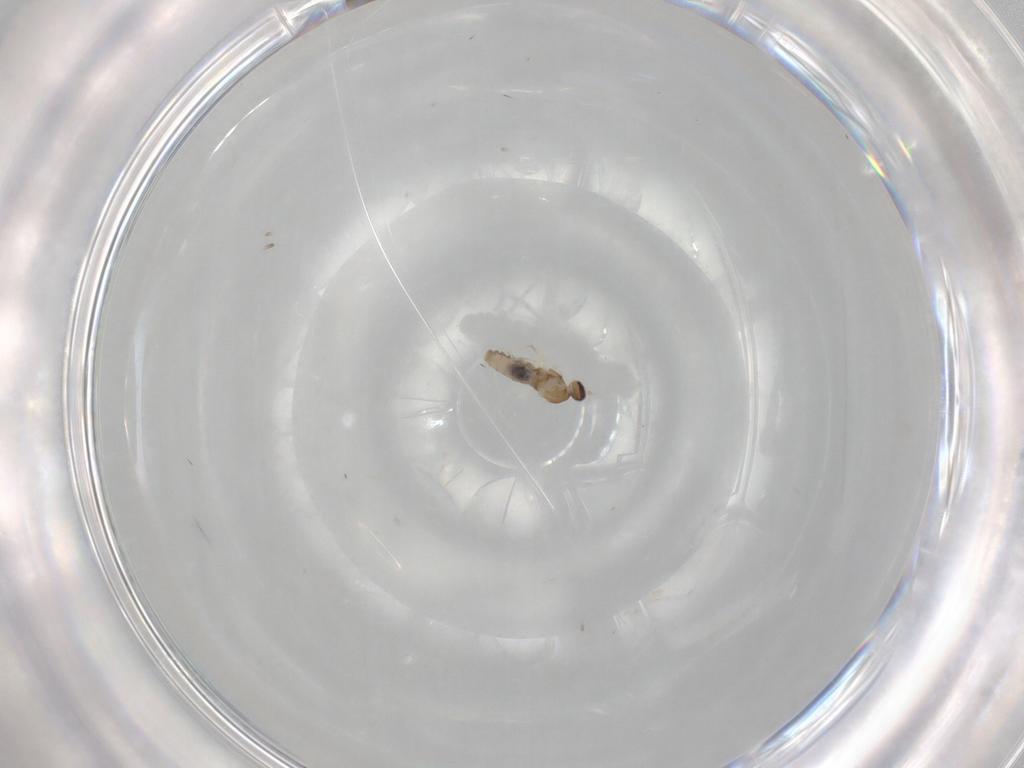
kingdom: Animalia
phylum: Arthropoda
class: Insecta
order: Diptera
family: Cecidomyiidae
